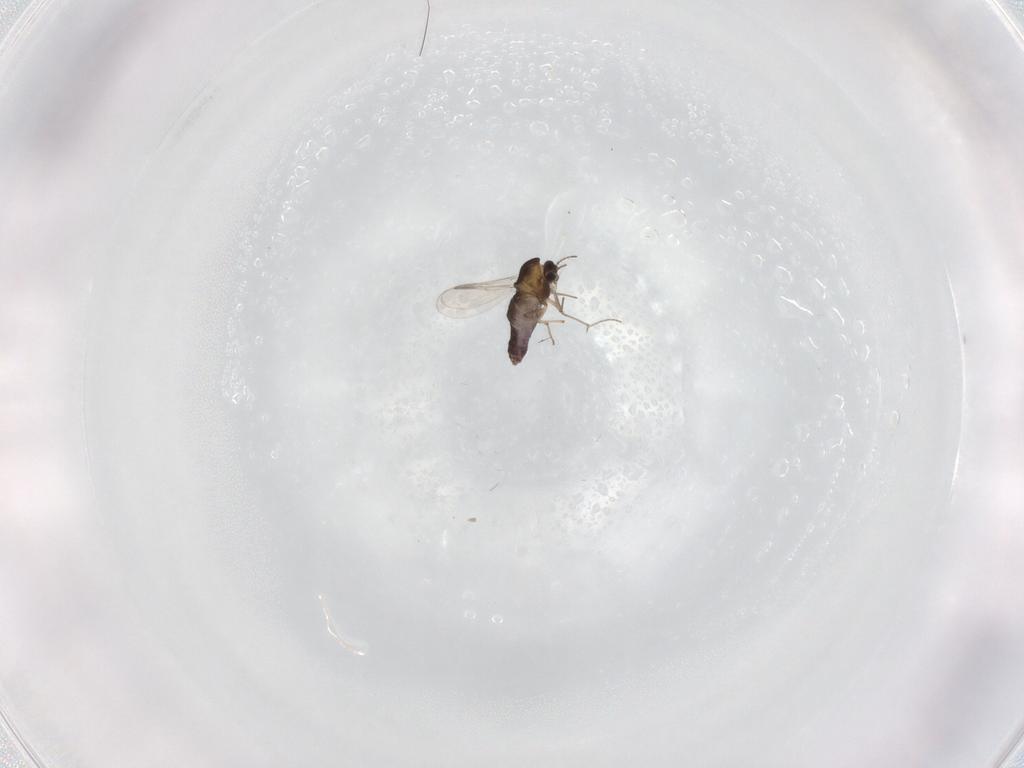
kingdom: Animalia
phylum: Arthropoda
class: Insecta
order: Diptera
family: Chironomidae
